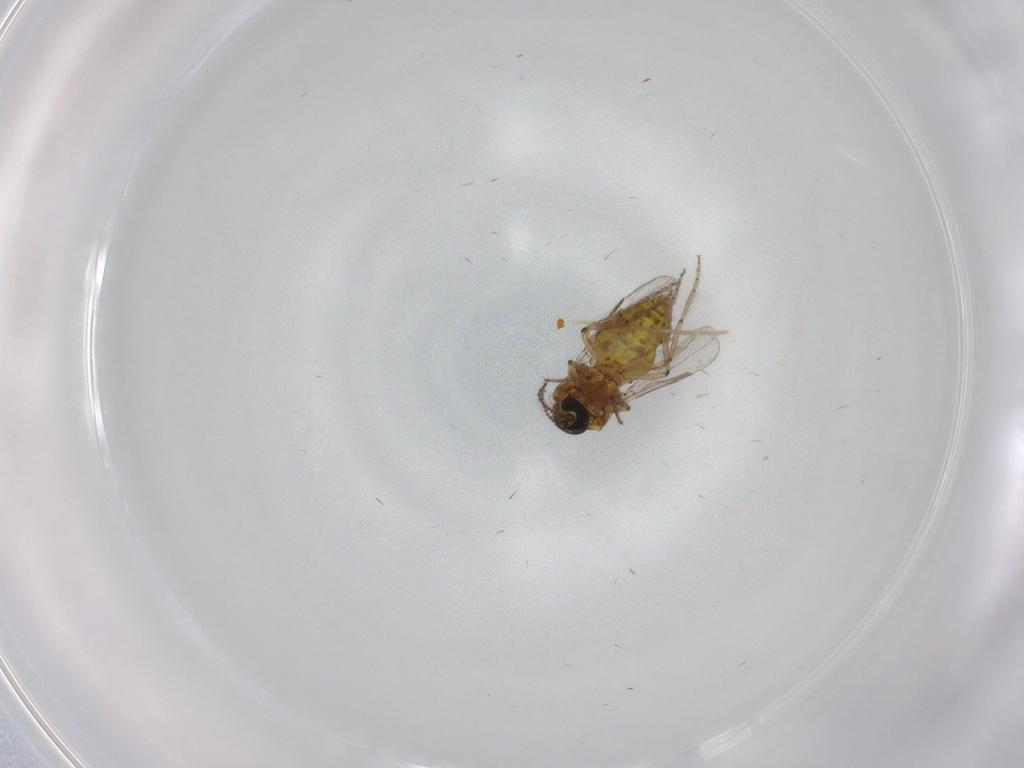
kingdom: Animalia
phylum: Arthropoda
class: Insecta
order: Diptera
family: Ceratopogonidae
